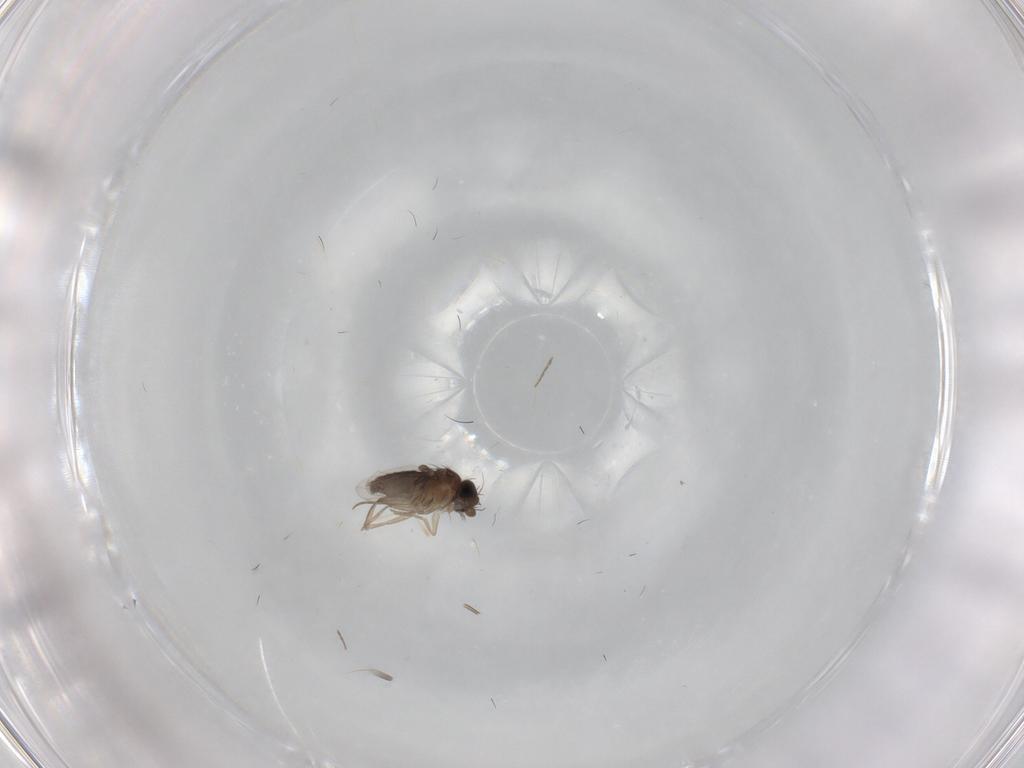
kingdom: Animalia
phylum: Arthropoda
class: Insecta
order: Diptera
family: Phoridae
